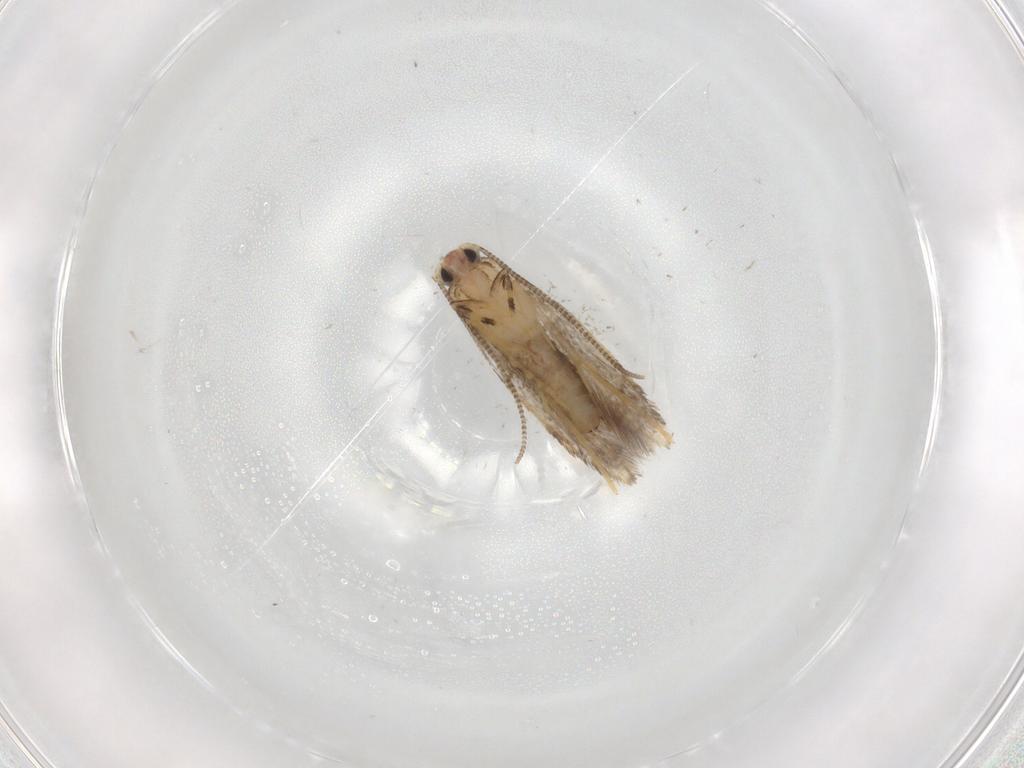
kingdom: Animalia
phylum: Arthropoda
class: Insecta
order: Lepidoptera
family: Tineidae
